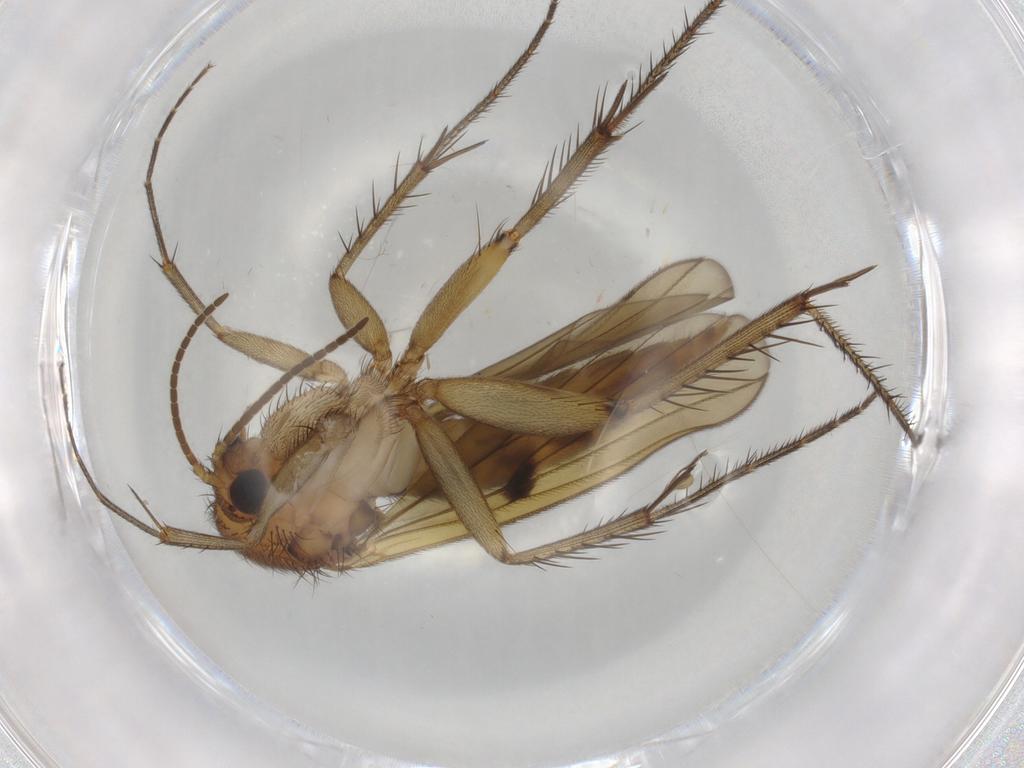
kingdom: Animalia
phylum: Arthropoda
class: Insecta
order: Diptera
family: Mycetophilidae
